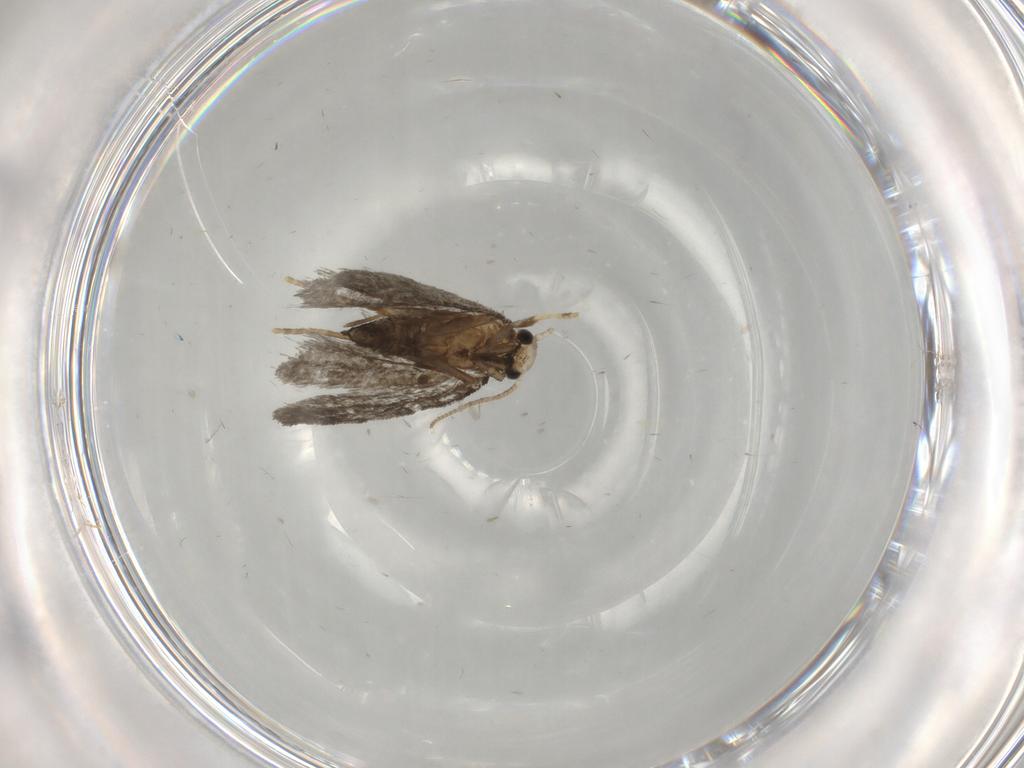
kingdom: Animalia
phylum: Arthropoda
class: Insecta
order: Lepidoptera
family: Psychidae
